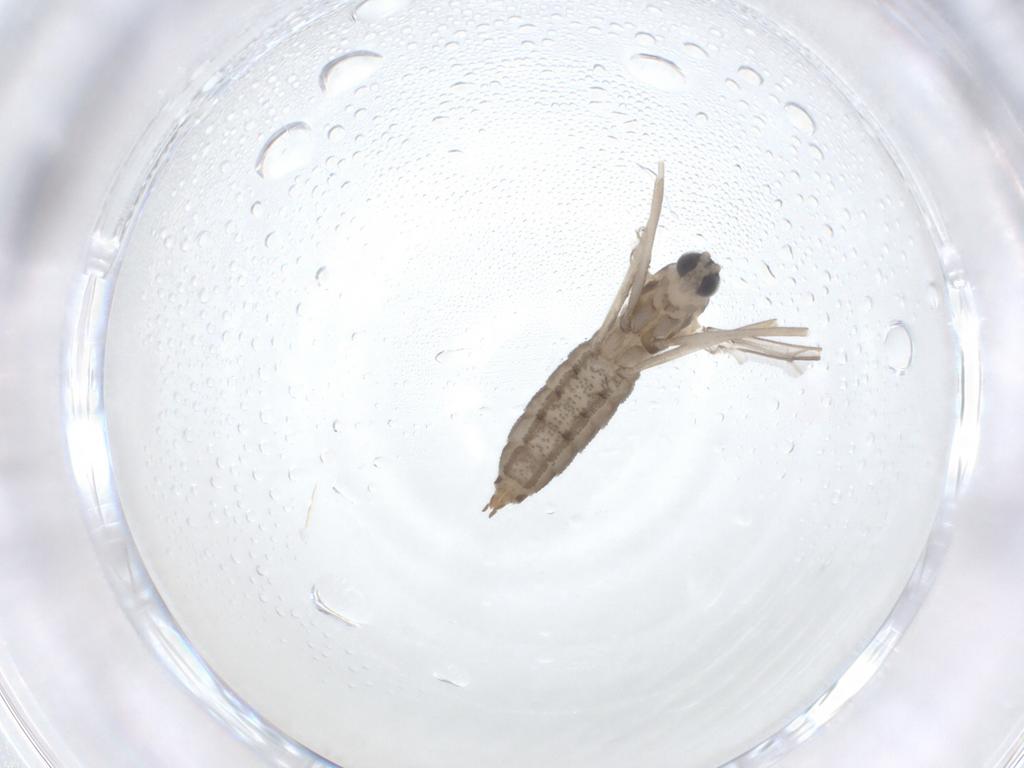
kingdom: Animalia
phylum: Arthropoda
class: Insecta
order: Diptera
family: Cecidomyiidae
